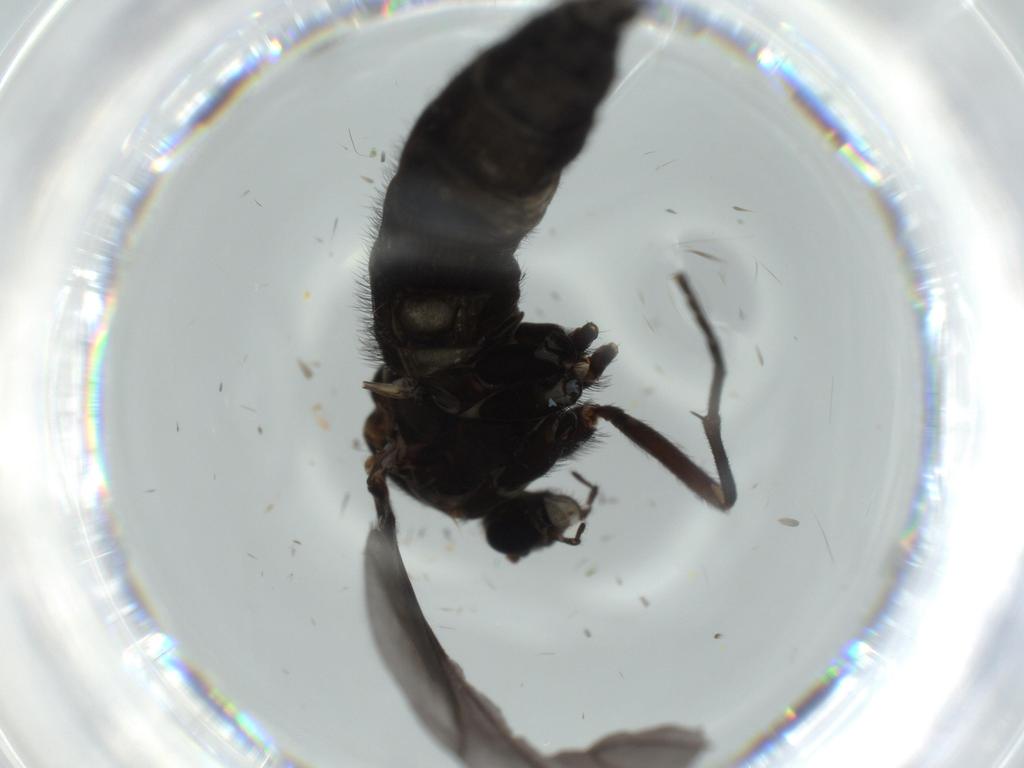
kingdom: Animalia
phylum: Arthropoda
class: Insecta
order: Diptera
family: Sciaridae
